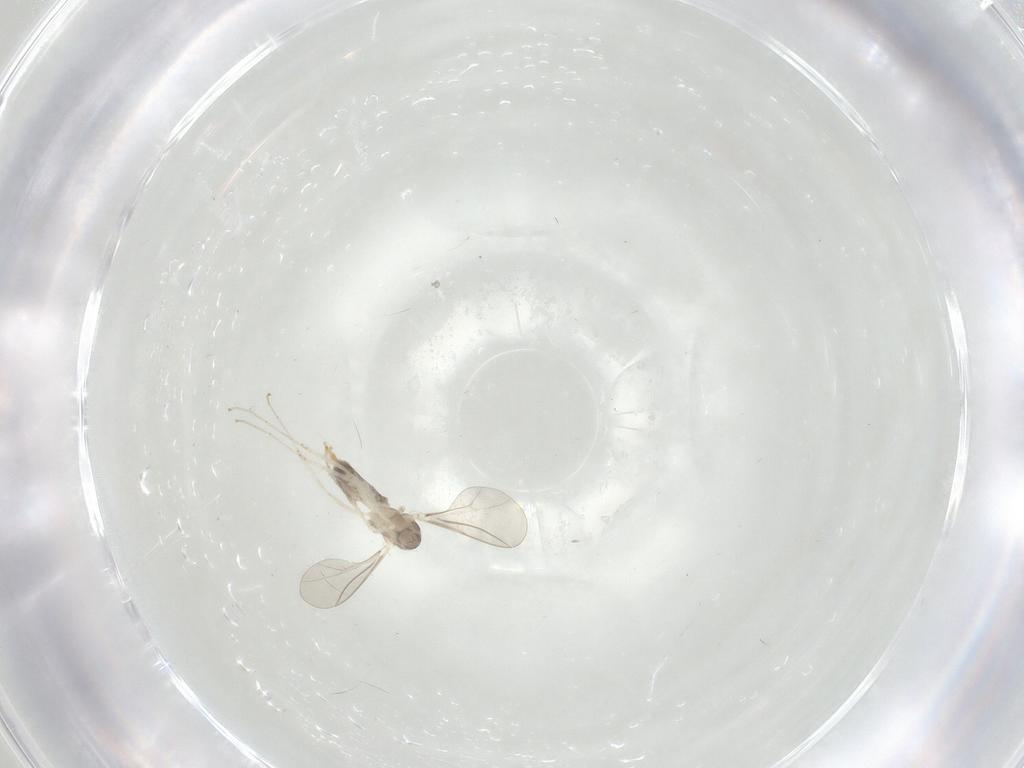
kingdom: Animalia
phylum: Arthropoda
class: Insecta
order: Diptera
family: Cecidomyiidae
